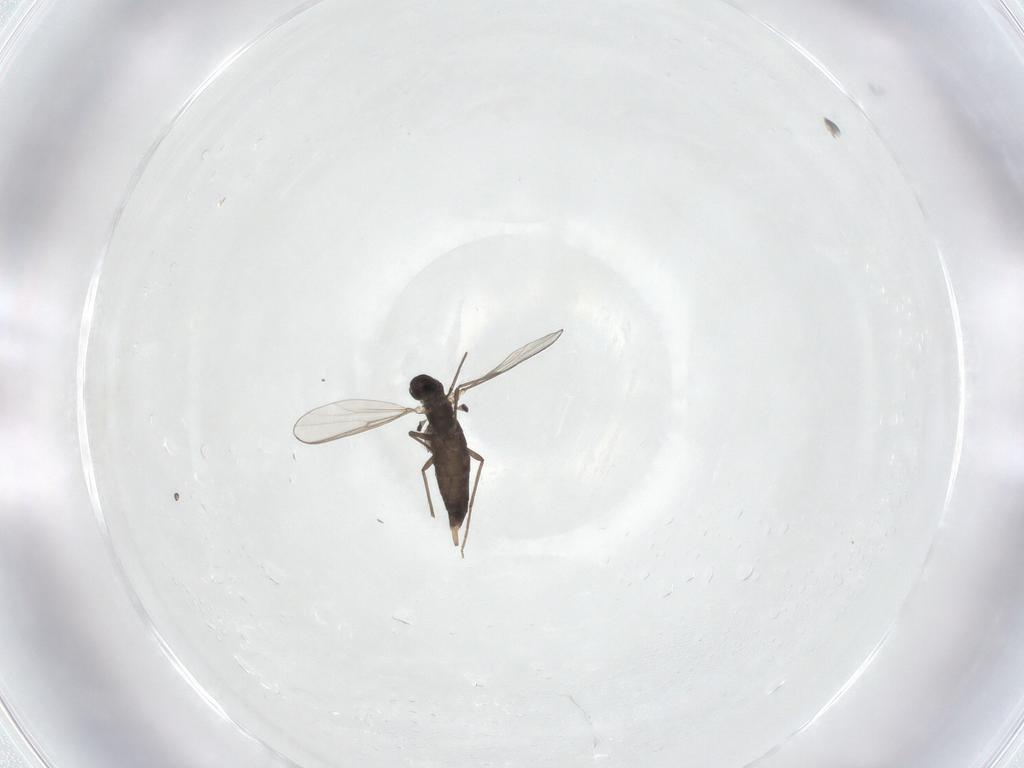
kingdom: Animalia
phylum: Arthropoda
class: Insecta
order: Diptera
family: Chironomidae
